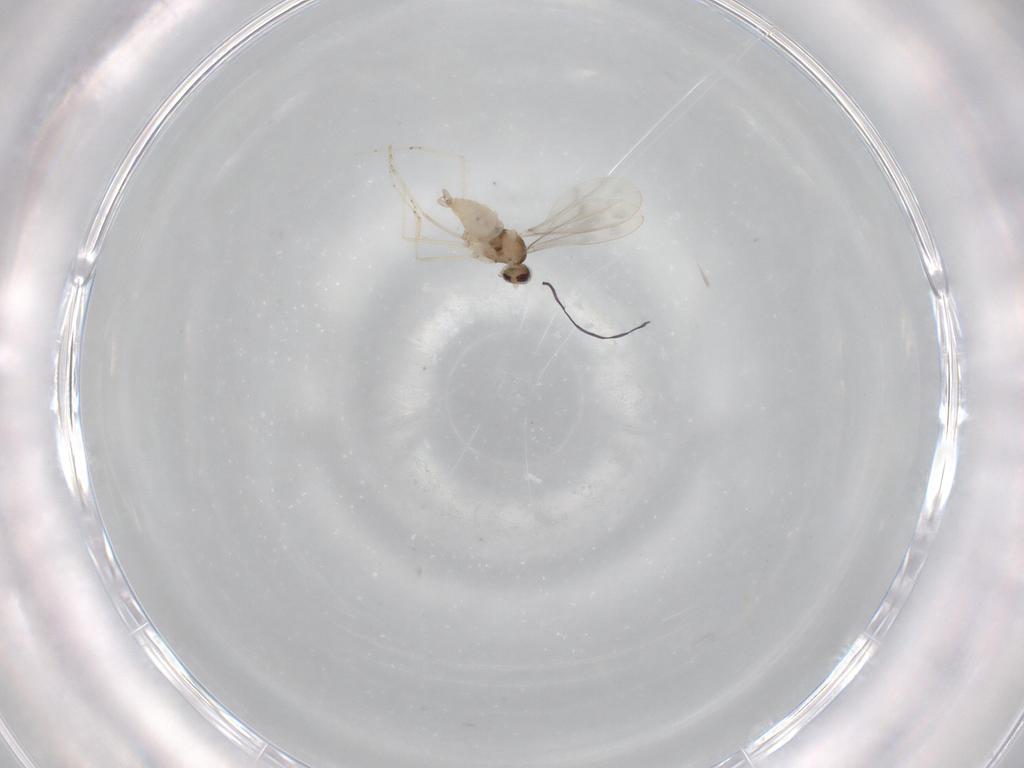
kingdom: Animalia
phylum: Arthropoda
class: Insecta
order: Diptera
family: Cecidomyiidae
